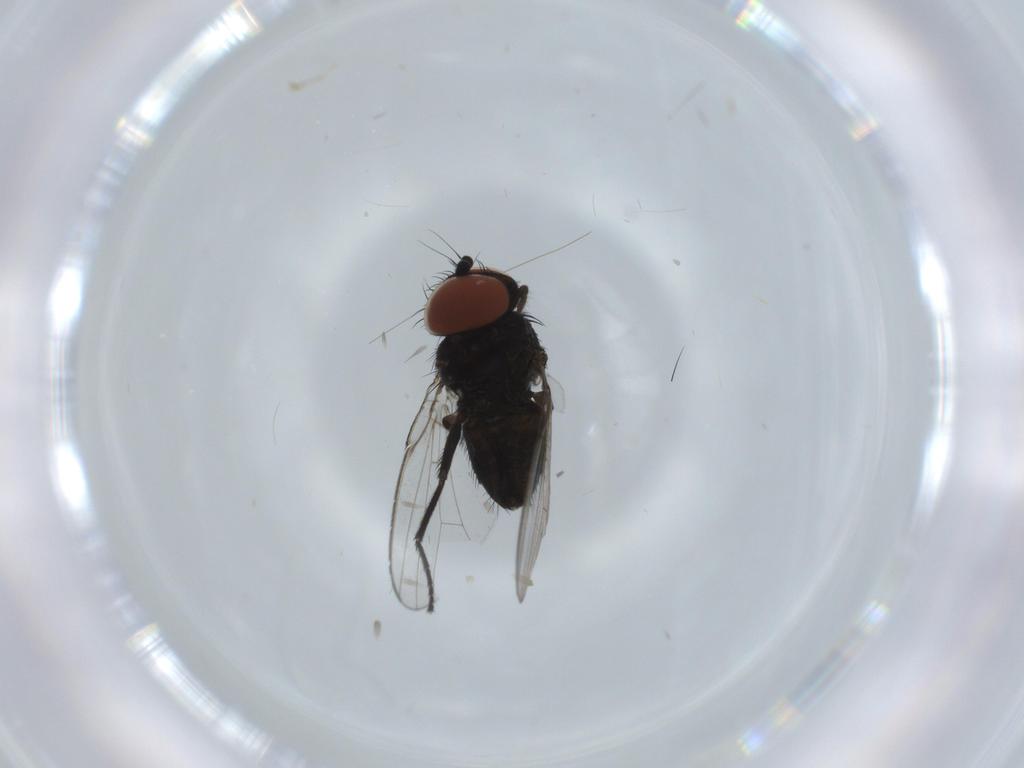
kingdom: Animalia
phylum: Arthropoda
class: Insecta
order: Diptera
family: Milichiidae
